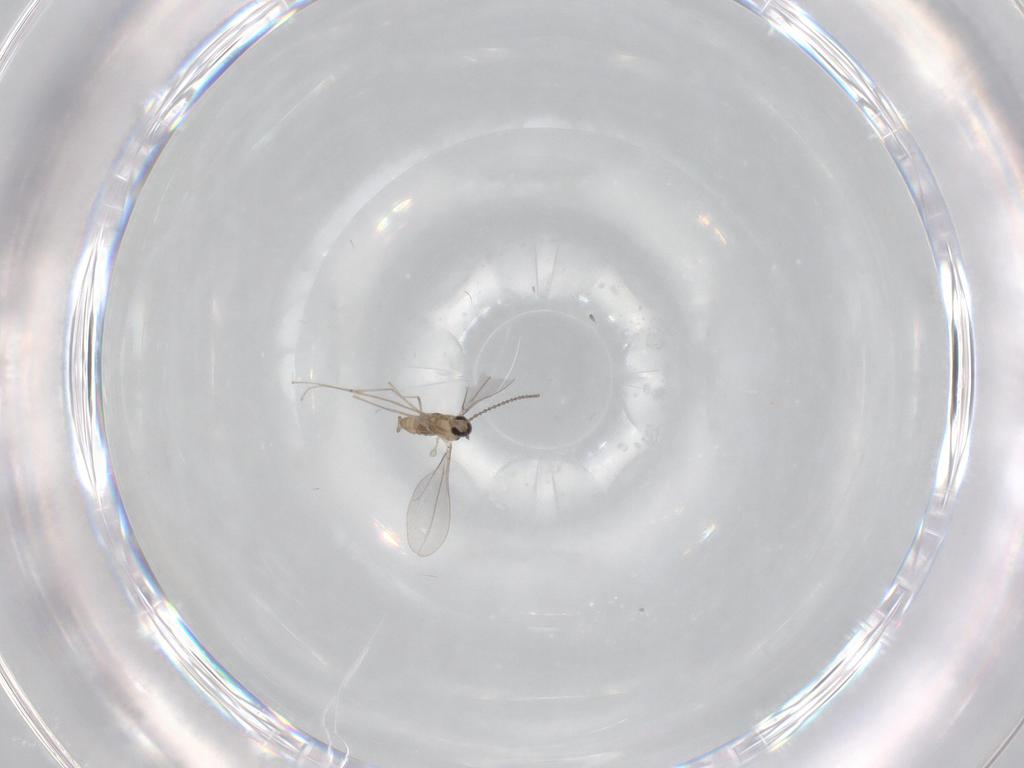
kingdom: Animalia
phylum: Arthropoda
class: Insecta
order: Diptera
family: Cecidomyiidae
